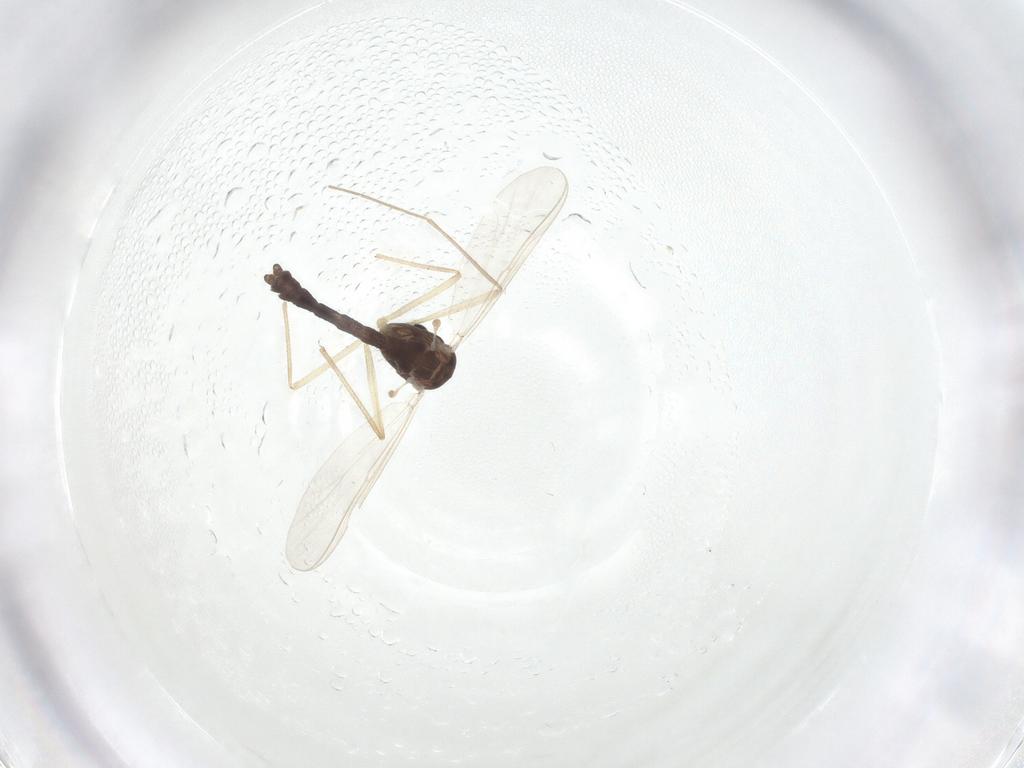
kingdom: Animalia
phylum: Arthropoda
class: Insecta
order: Diptera
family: Chironomidae
